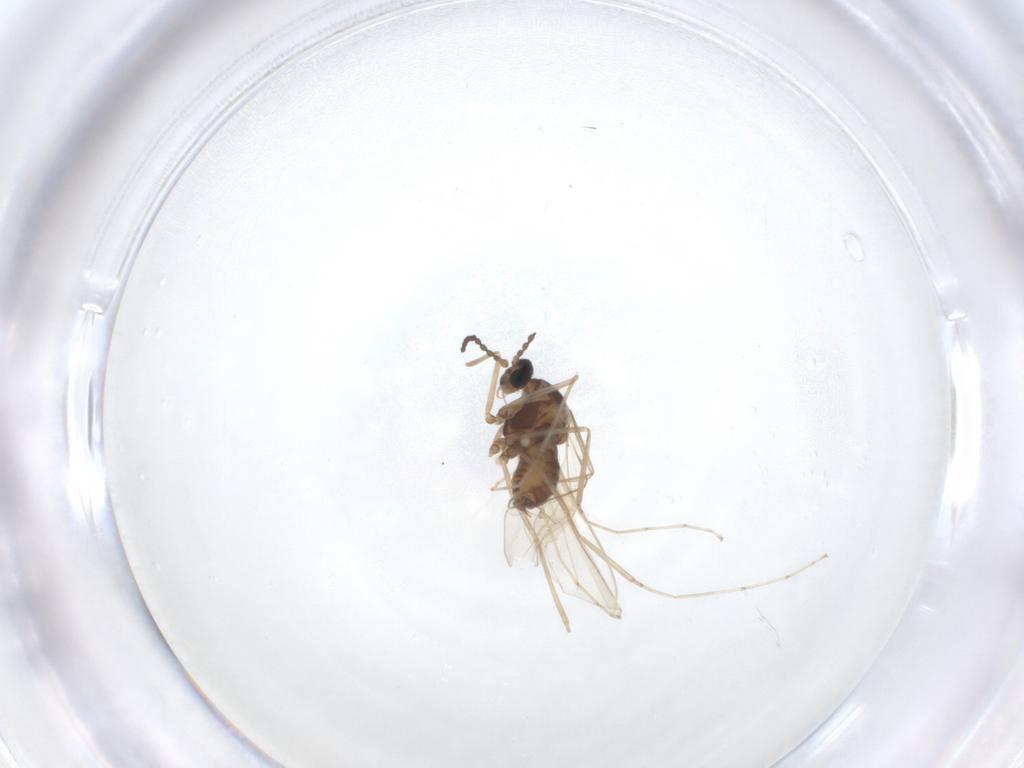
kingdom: Animalia
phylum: Arthropoda
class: Insecta
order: Diptera
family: Cecidomyiidae
